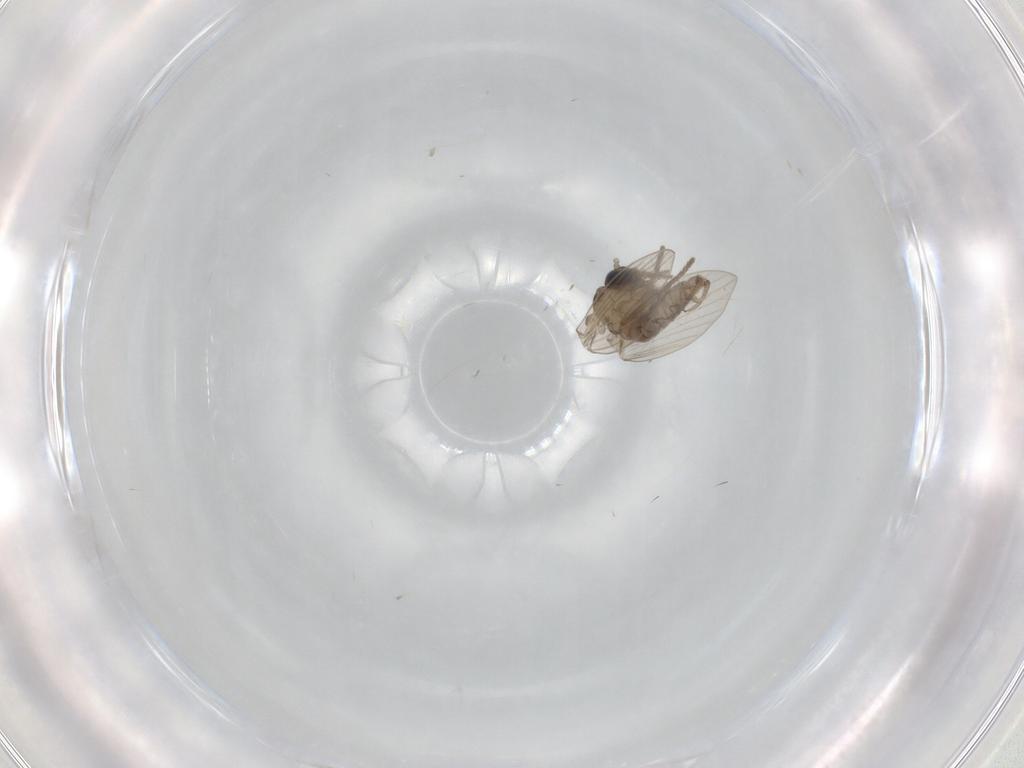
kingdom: Animalia
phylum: Arthropoda
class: Insecta
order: Diptera
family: Drosophilidae
